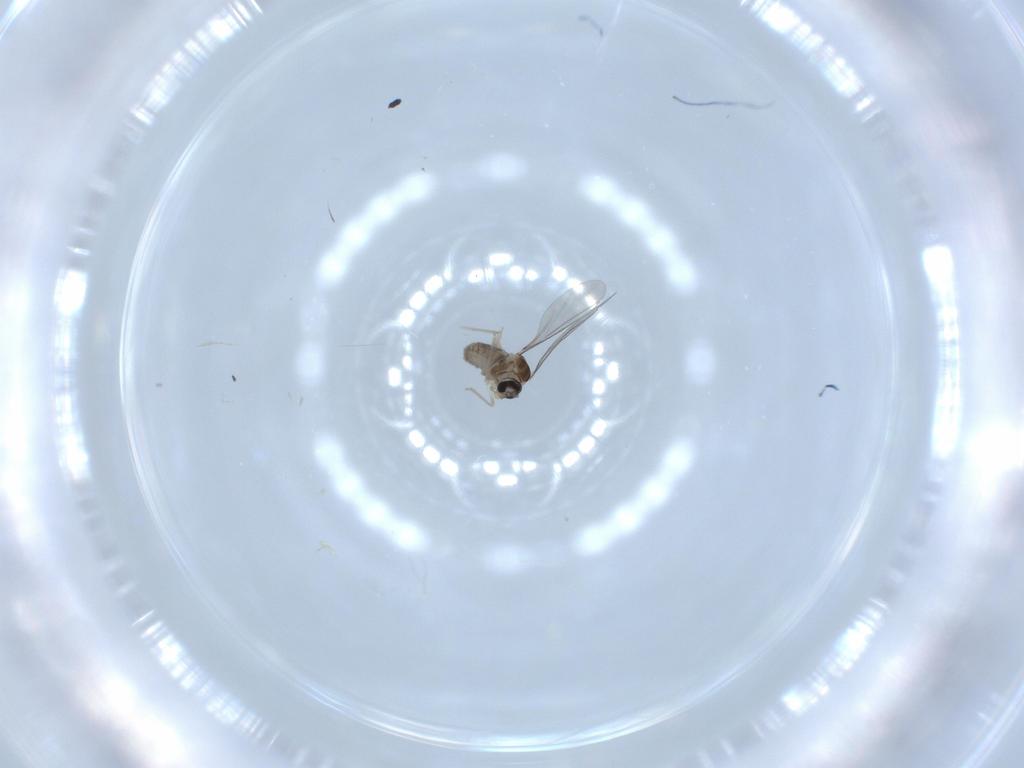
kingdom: Animalia
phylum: Arthropoda
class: Insecta
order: Diptera
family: Cecidomyiidae
